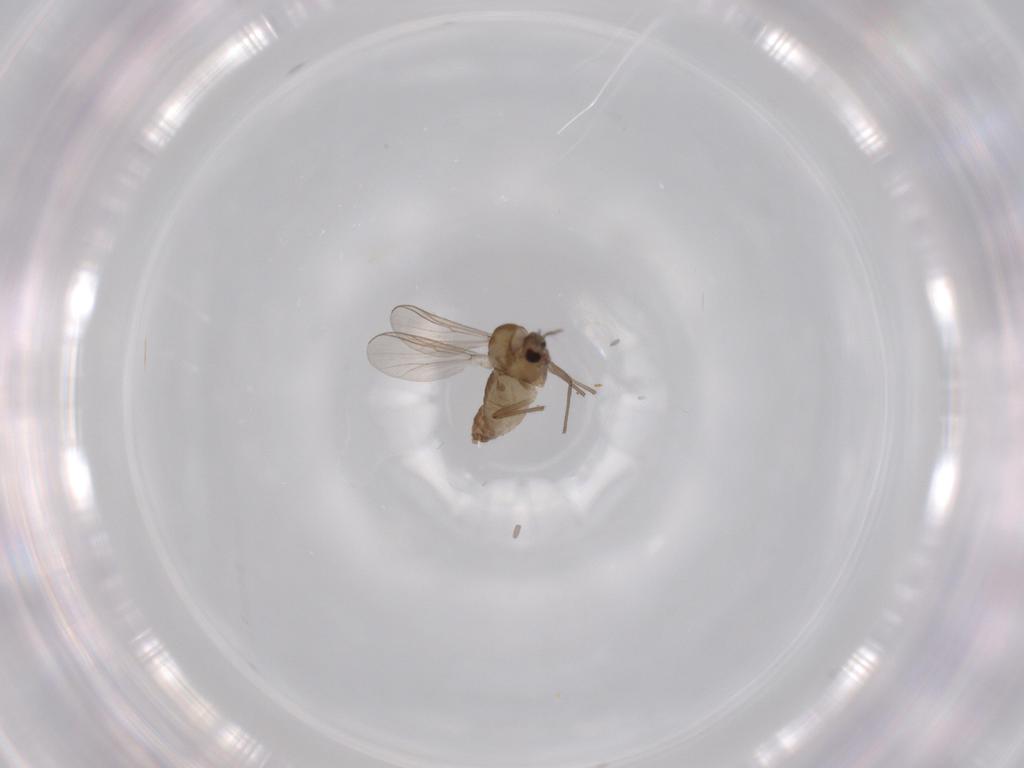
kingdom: Animalia
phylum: Arthropoda
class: Insecta
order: Diptera
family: Chironomidae
